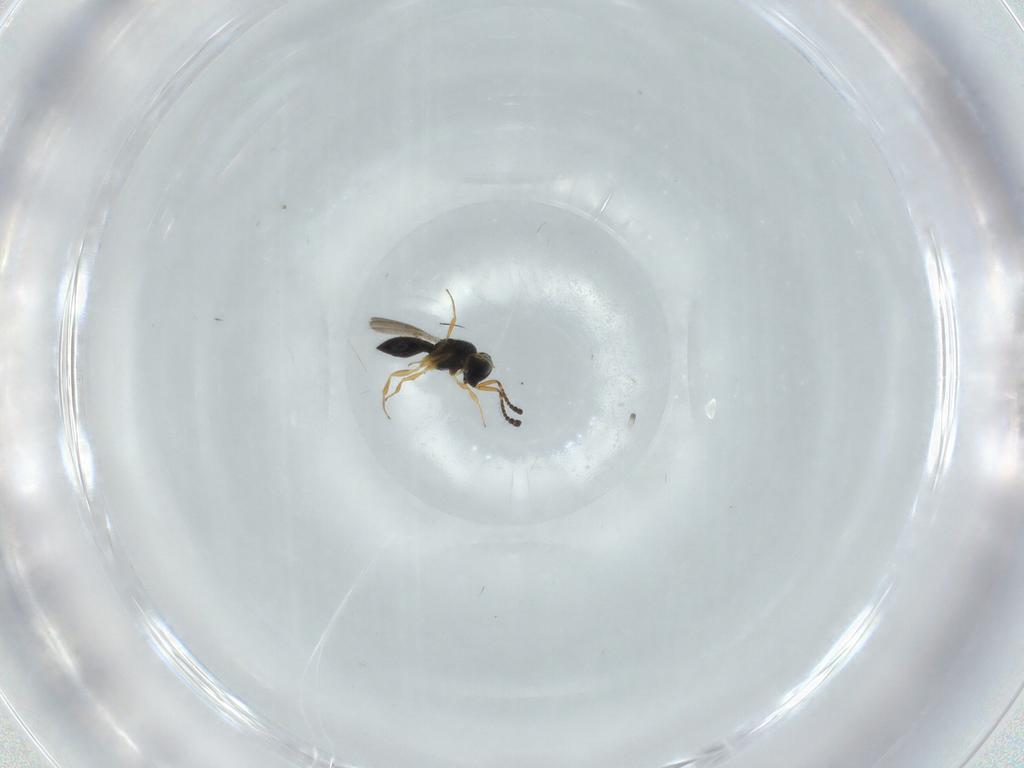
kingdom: Animalia
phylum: Arthropoda
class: Insecta
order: Hymenoptera
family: Scelionidae
